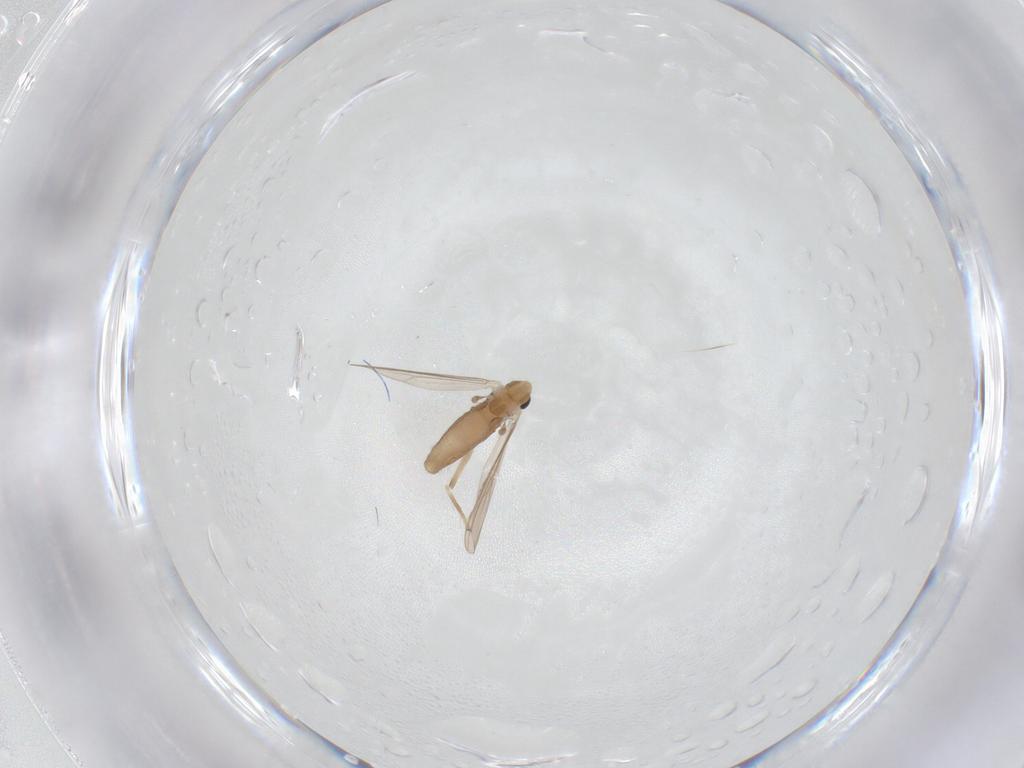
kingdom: Animalia
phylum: Arthropoda
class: Insecta
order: Diptera
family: Chironomidae
